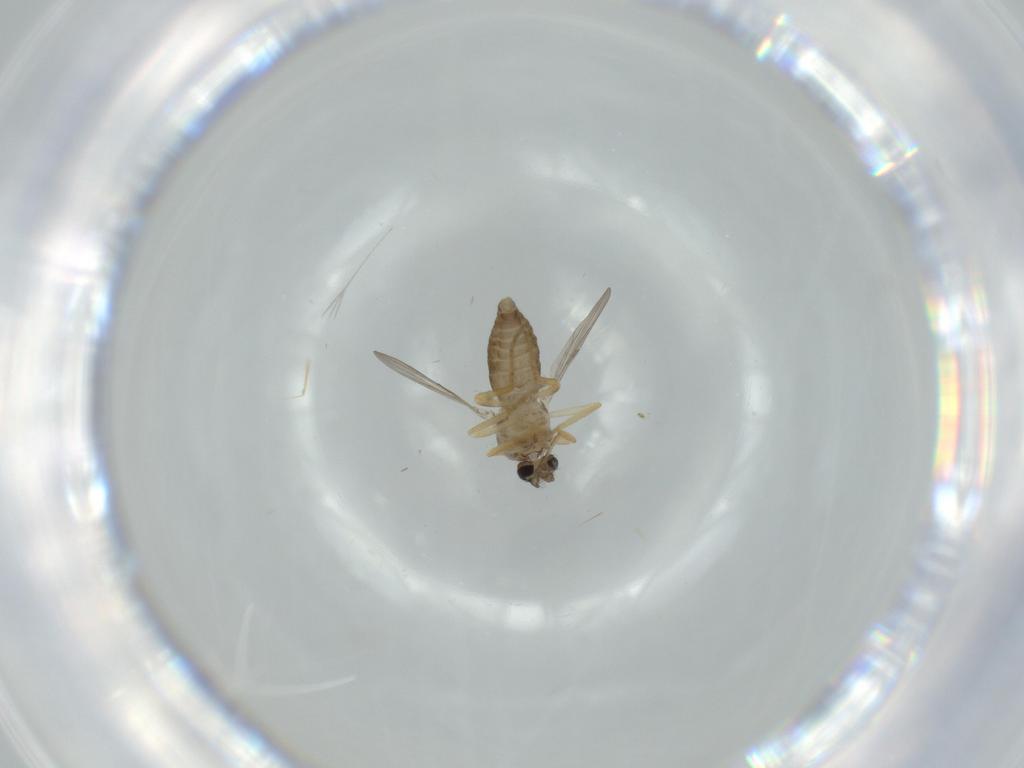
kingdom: Animalia
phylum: Arthropoda
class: Insecta
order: Diptera
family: Ceratopogonidae
